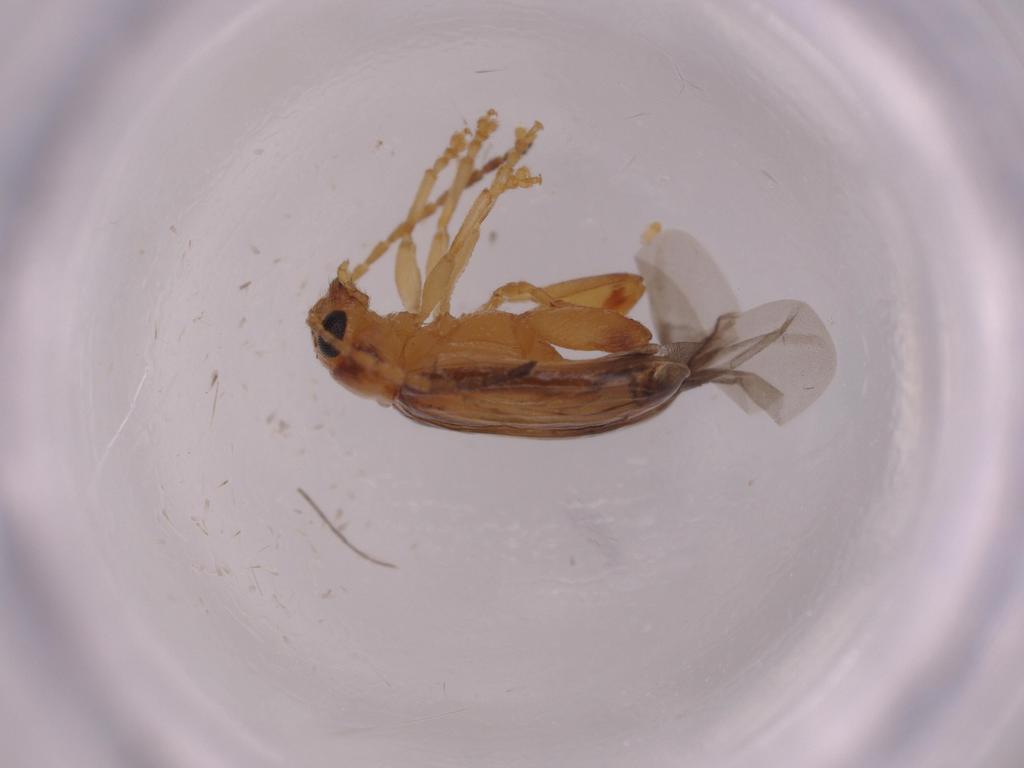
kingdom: Animalia
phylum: Arthropoda
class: Insecta
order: Coleoptera
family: Chrysomelidae
